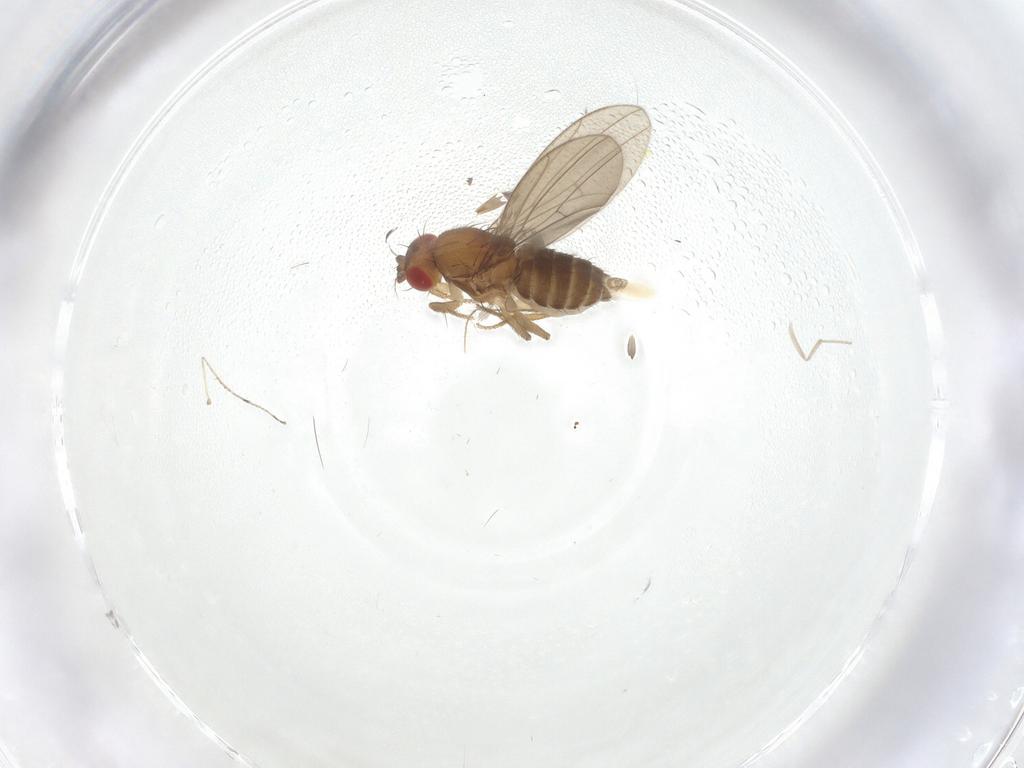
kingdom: Animalia
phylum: Arthropoda
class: Insecta
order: Diptera
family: Drosophilidae
